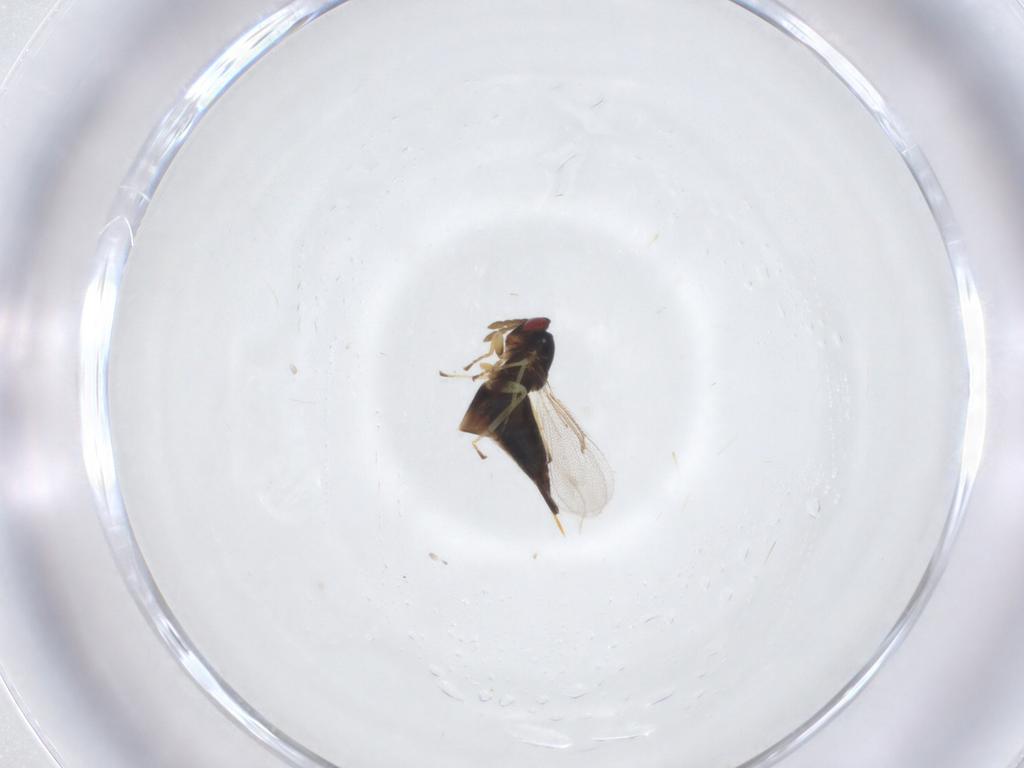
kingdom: Animalia
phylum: Arthropoda
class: Insecta
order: Hymenoptera
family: Eulophidae
